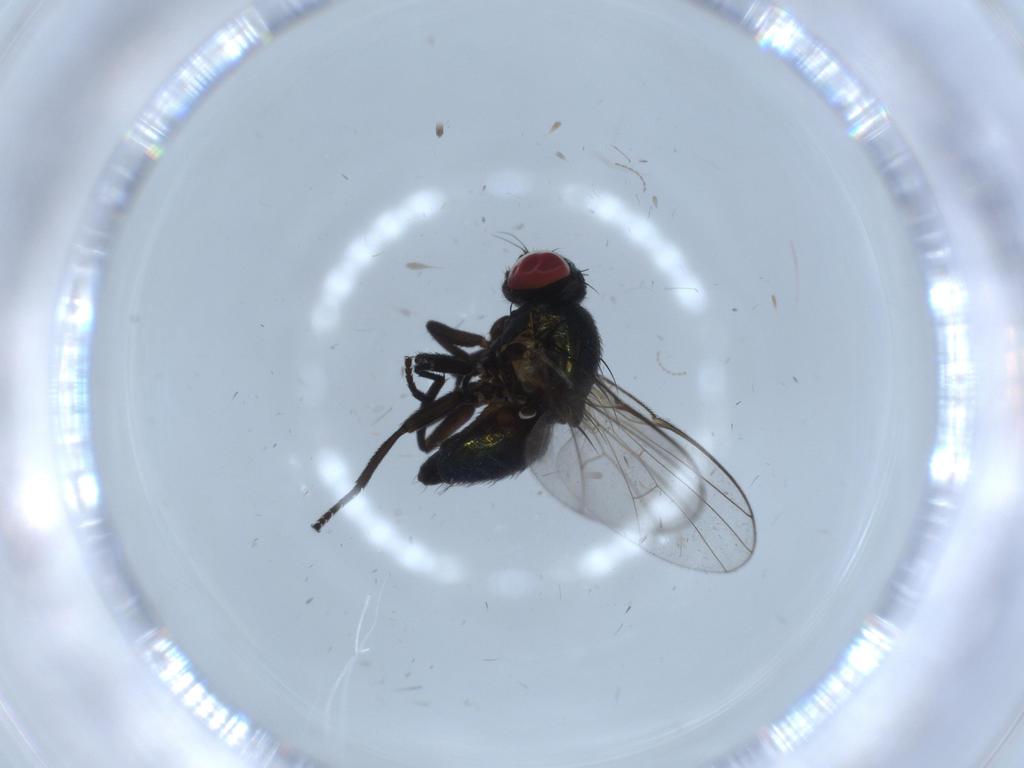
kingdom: Animalia
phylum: Arthropoda
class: Insecta
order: Diptera
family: Agromyzidae
